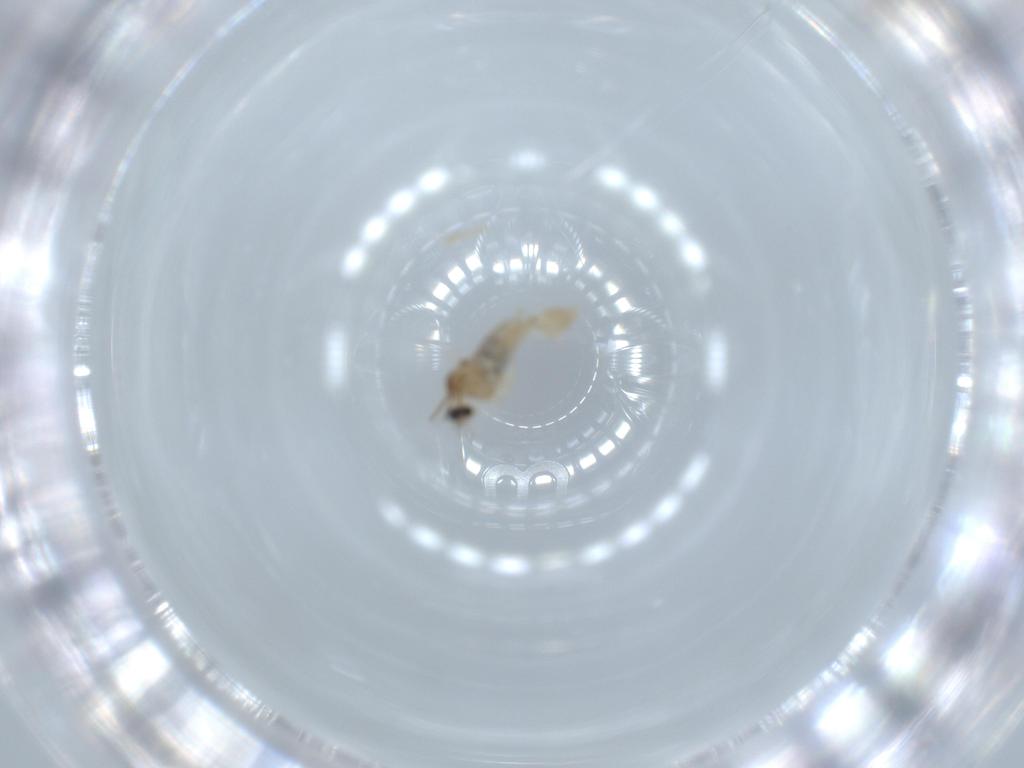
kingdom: Animalia
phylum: Arthropoda
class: Insecta
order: Diptera
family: Cecidomyiidae
